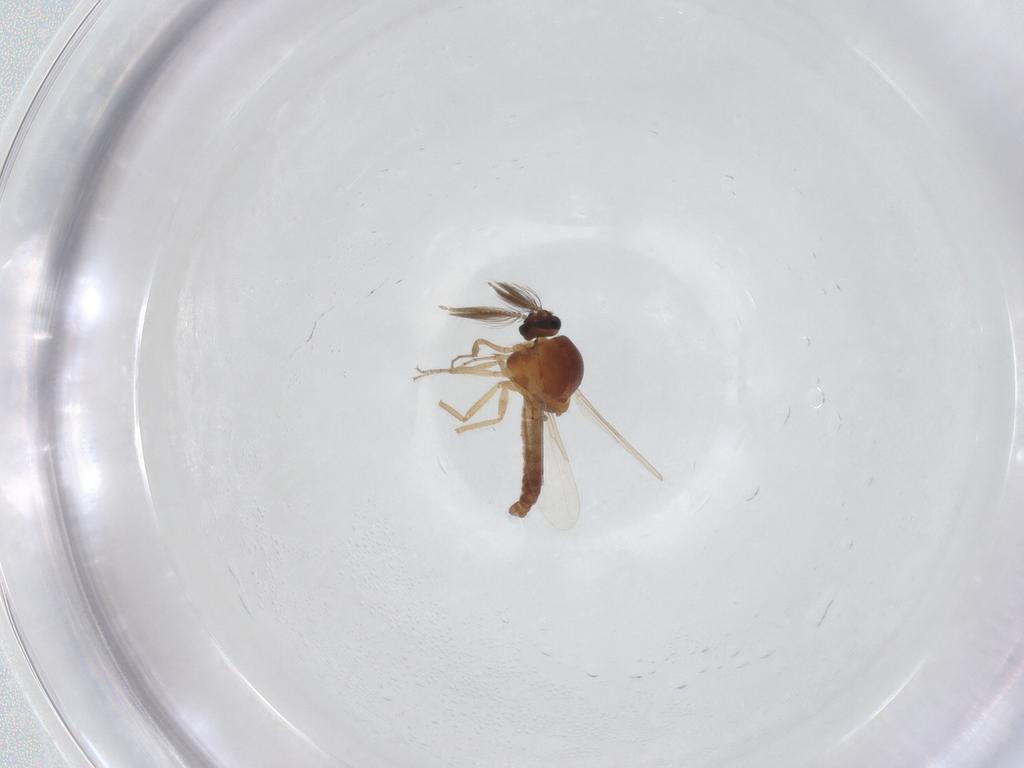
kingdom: Animalia
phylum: Arthropoda
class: Insecta
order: Diptera
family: Ceratopogonidae
